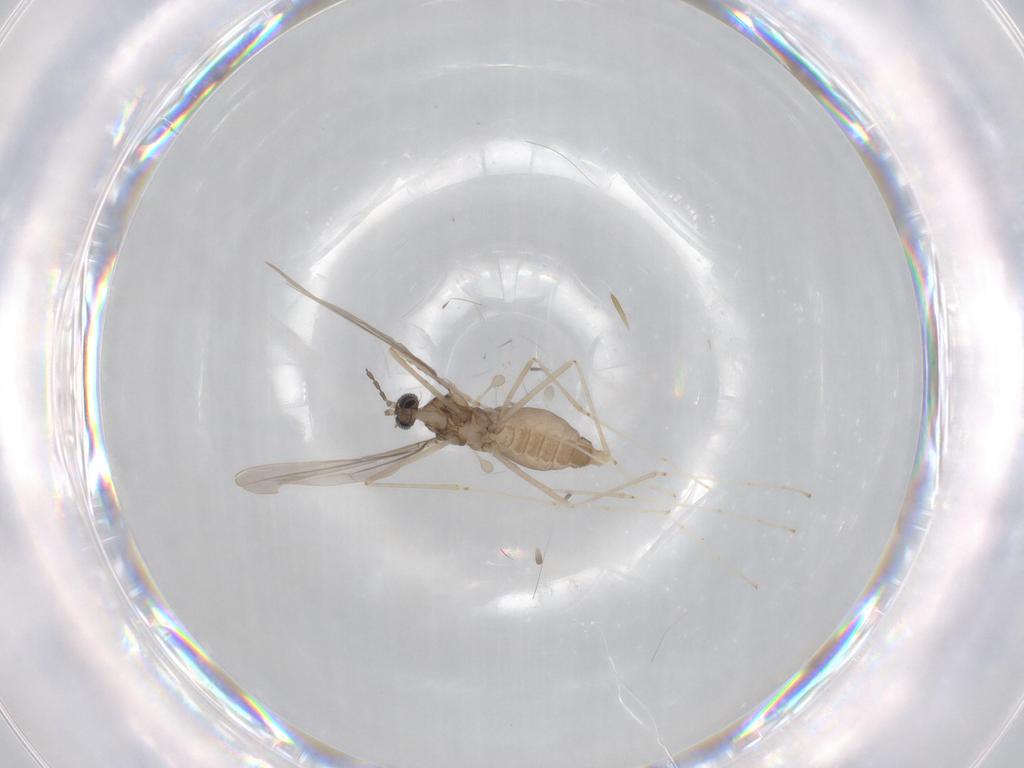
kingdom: Animalia
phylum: Arthropoda
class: Insecta
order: Diptera
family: Cecidomyiidae
